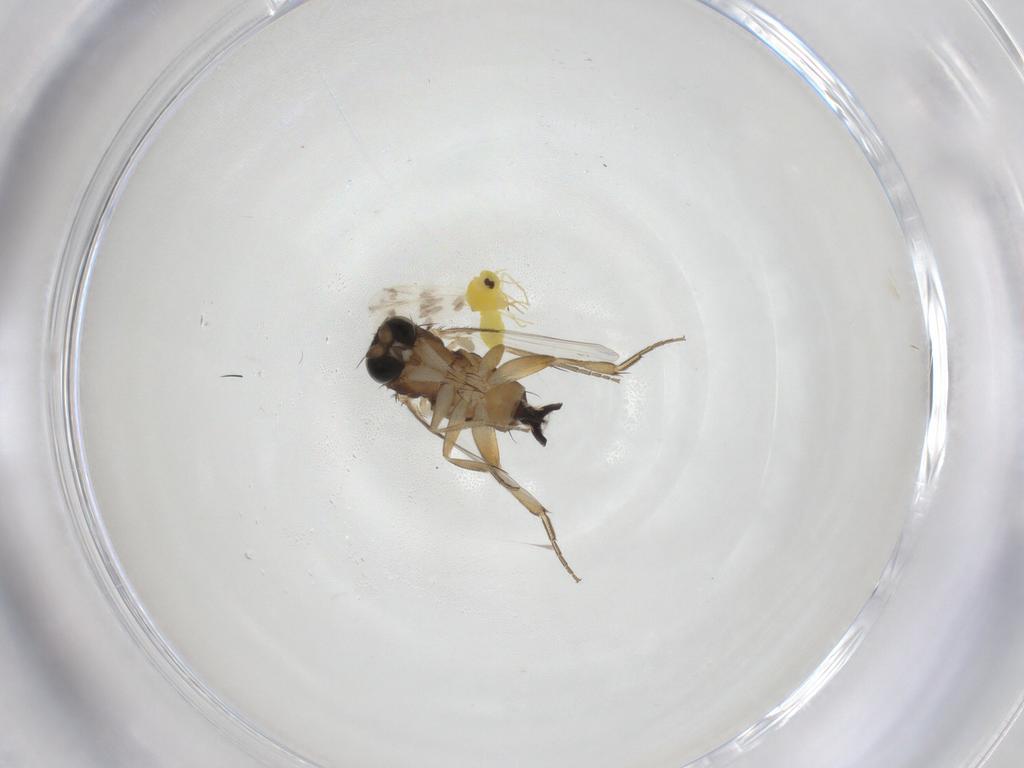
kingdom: Animalia
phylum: Arthropoda
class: Insecta
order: Hemiptera
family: Aleyrodidae
